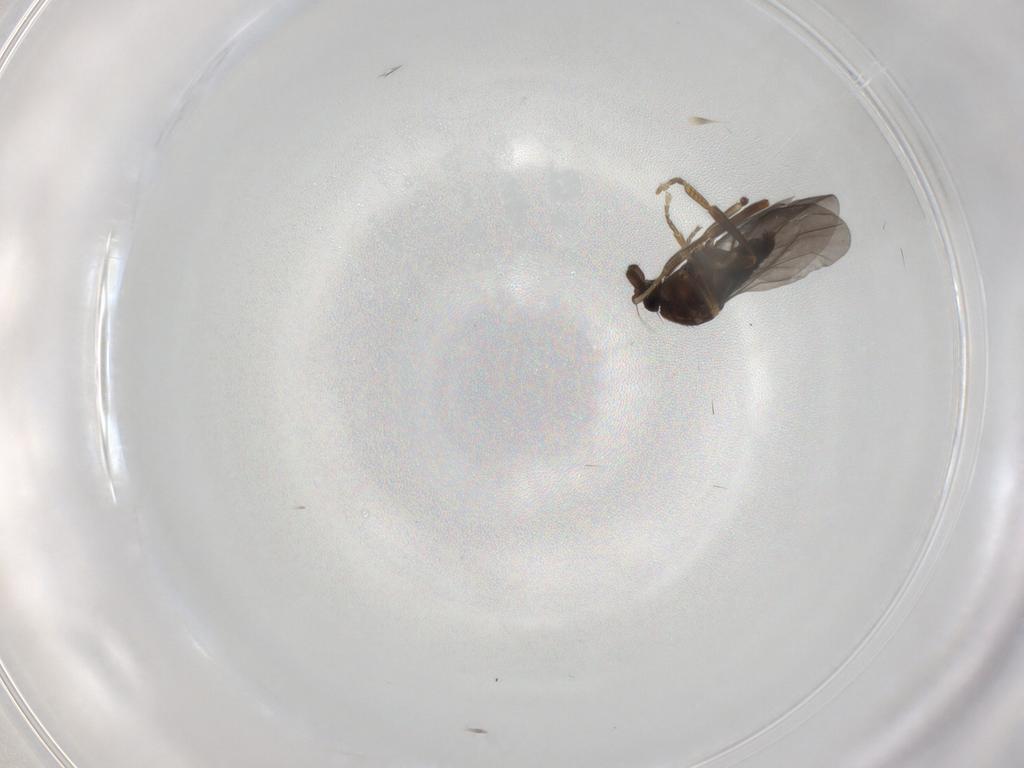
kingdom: Animalia
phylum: Arthropoda
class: Insecta
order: Diptera
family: Phoridae
